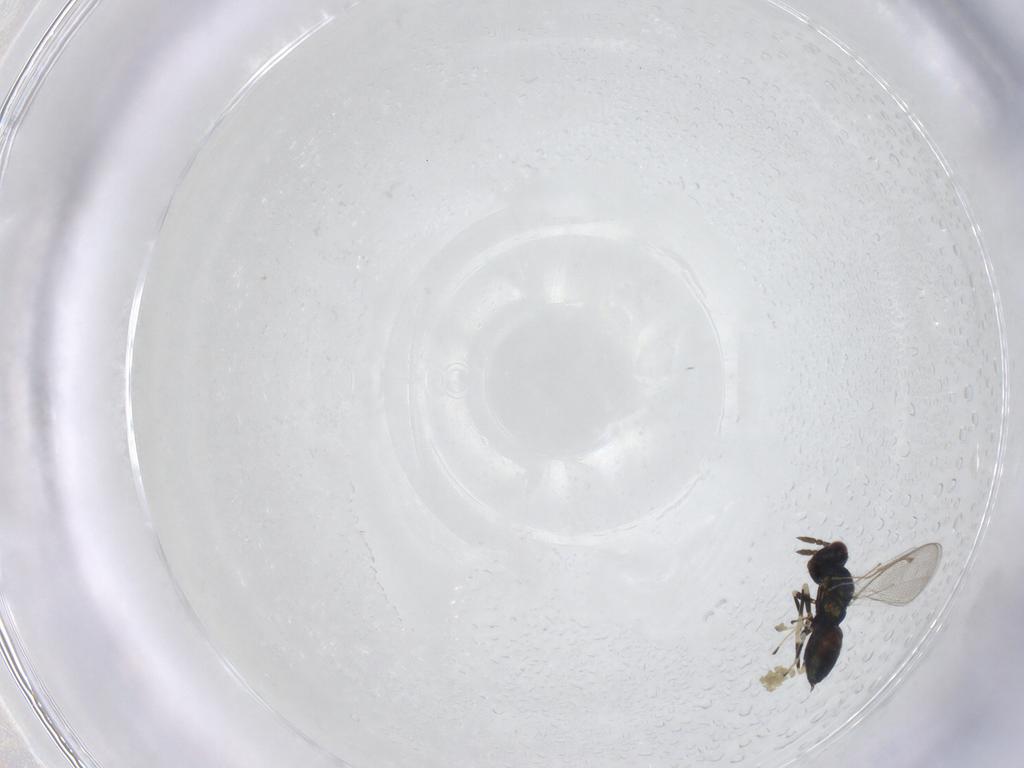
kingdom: Animalia
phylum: Arthropoda
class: Insecta
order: Hymenoptera
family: Eulophidae
